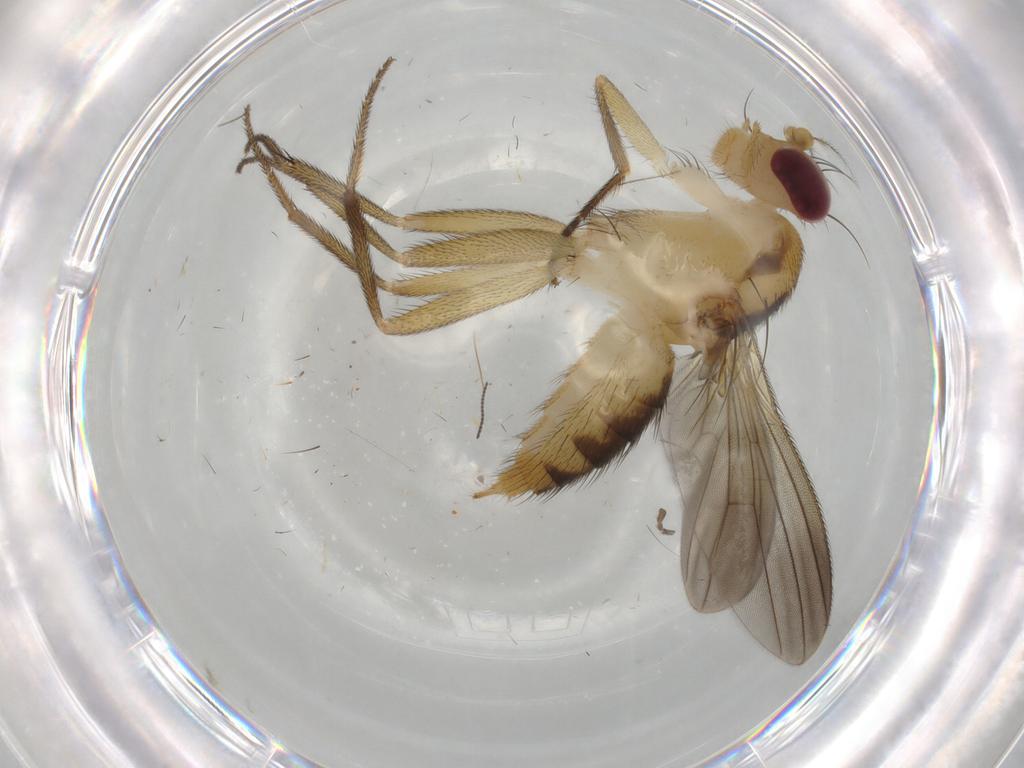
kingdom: Animalia
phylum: Arthropoda
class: Insecta
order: Diptera
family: Clusiidae
